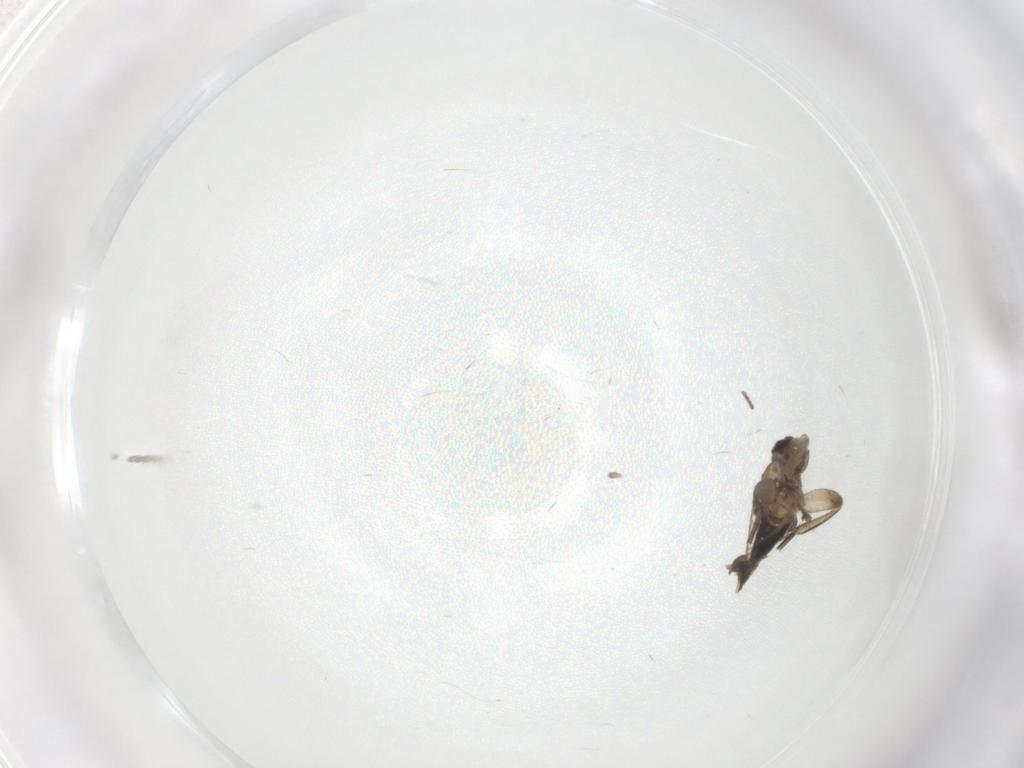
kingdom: Animalia
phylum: Arthropoda
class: Insecta
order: Diptera
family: Phoridae
